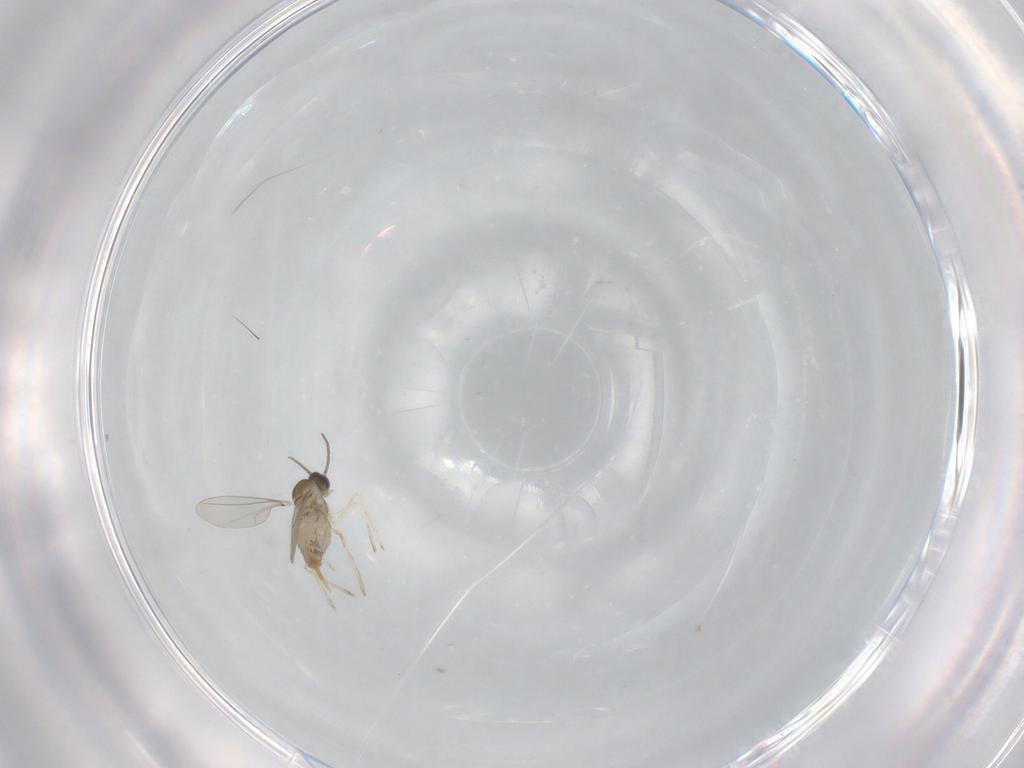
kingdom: Animalia
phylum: Arthropoda
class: Insecta
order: Diptera
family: Cecidomyiidae
